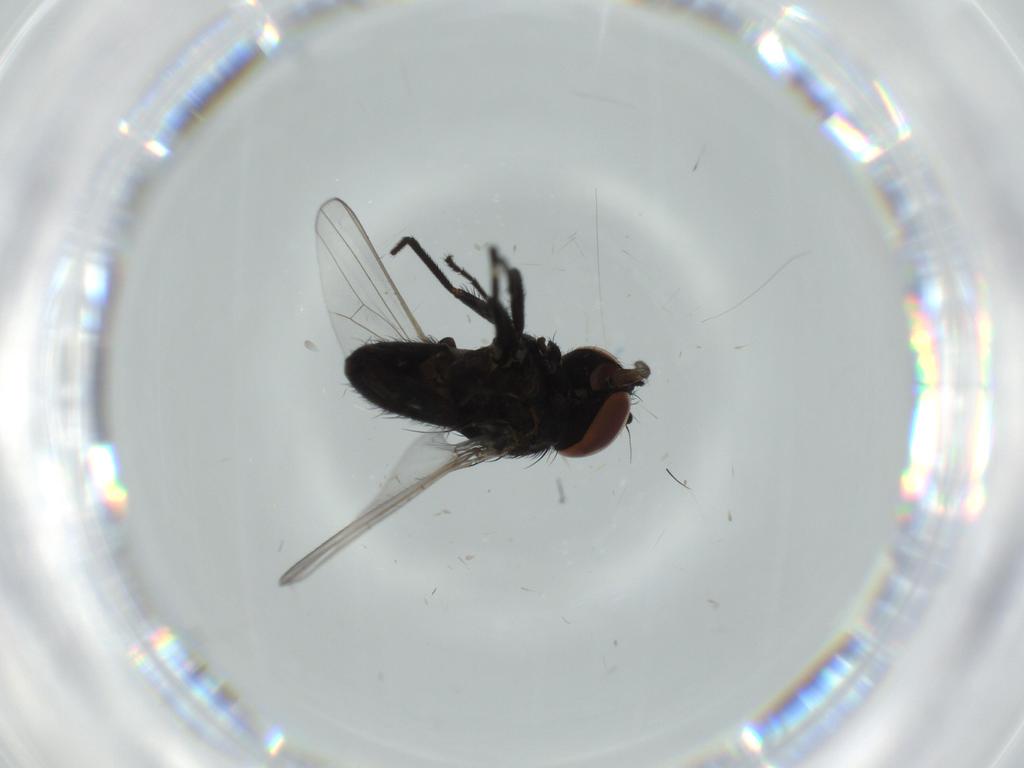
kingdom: Animalia
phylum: Arthropoda
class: Insecta
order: Diptera
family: Milichiidae
